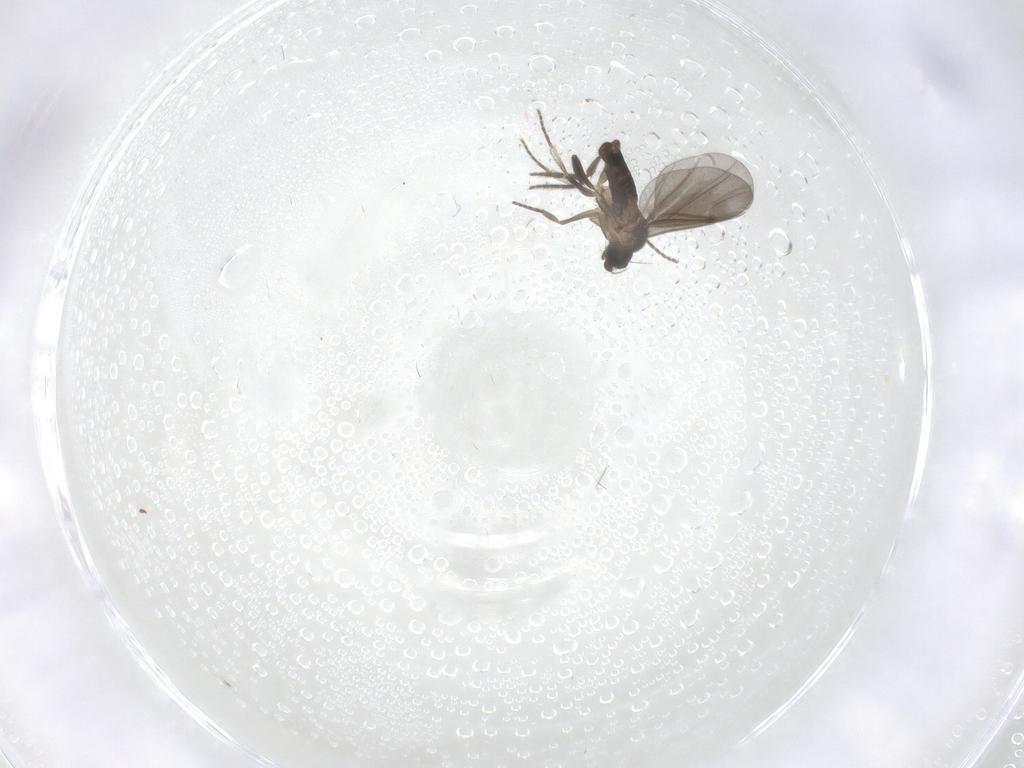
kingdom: Animalia
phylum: Arthropoda
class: Insecta
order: Diptera
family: Phoridae
